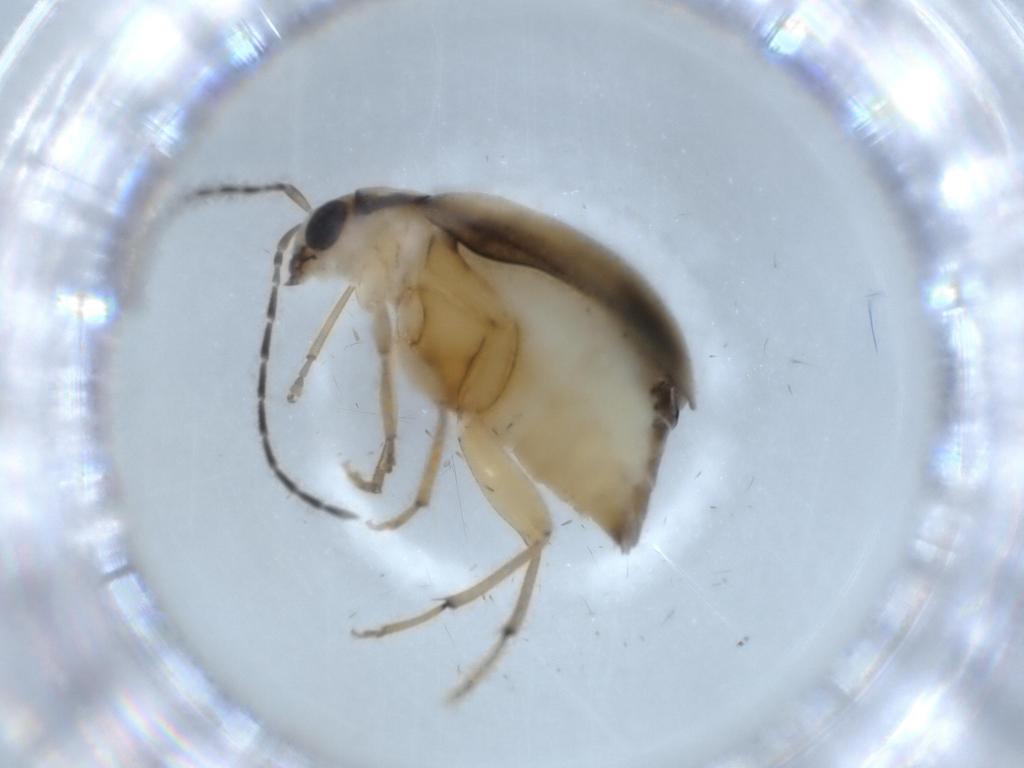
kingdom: Animalia
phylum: Arthropoda
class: Insecta
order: Coleoptera
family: Chrysomelidae
